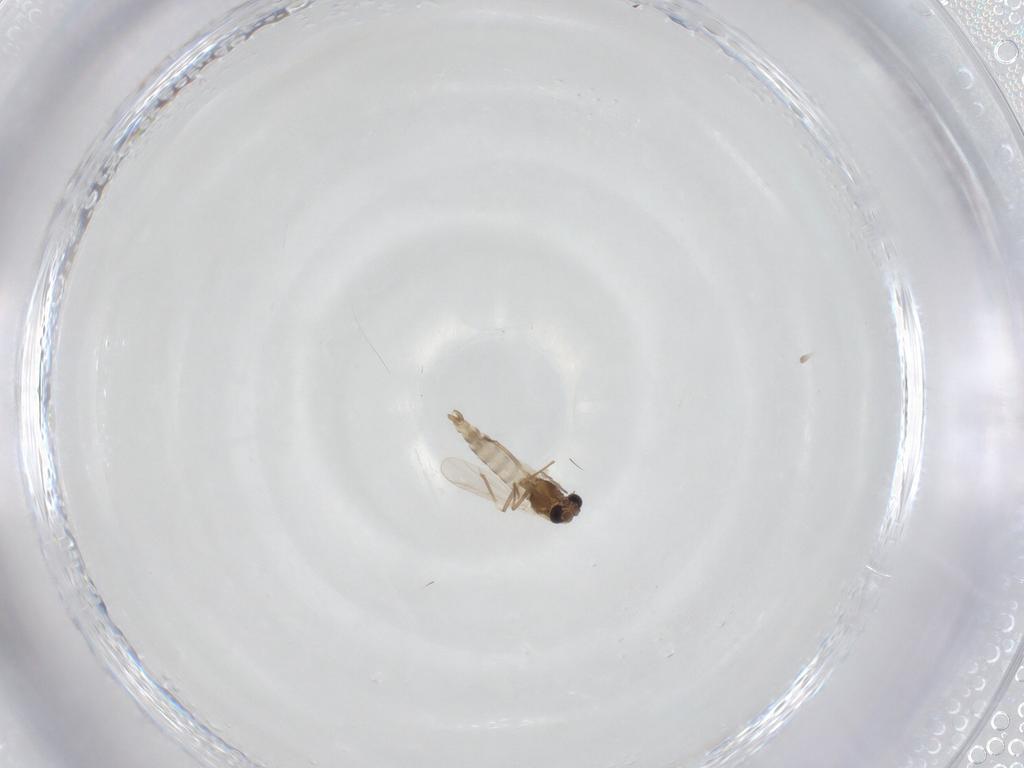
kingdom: Animalia
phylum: Arthropoda
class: Insecta
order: Diptera
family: Chironomidae
